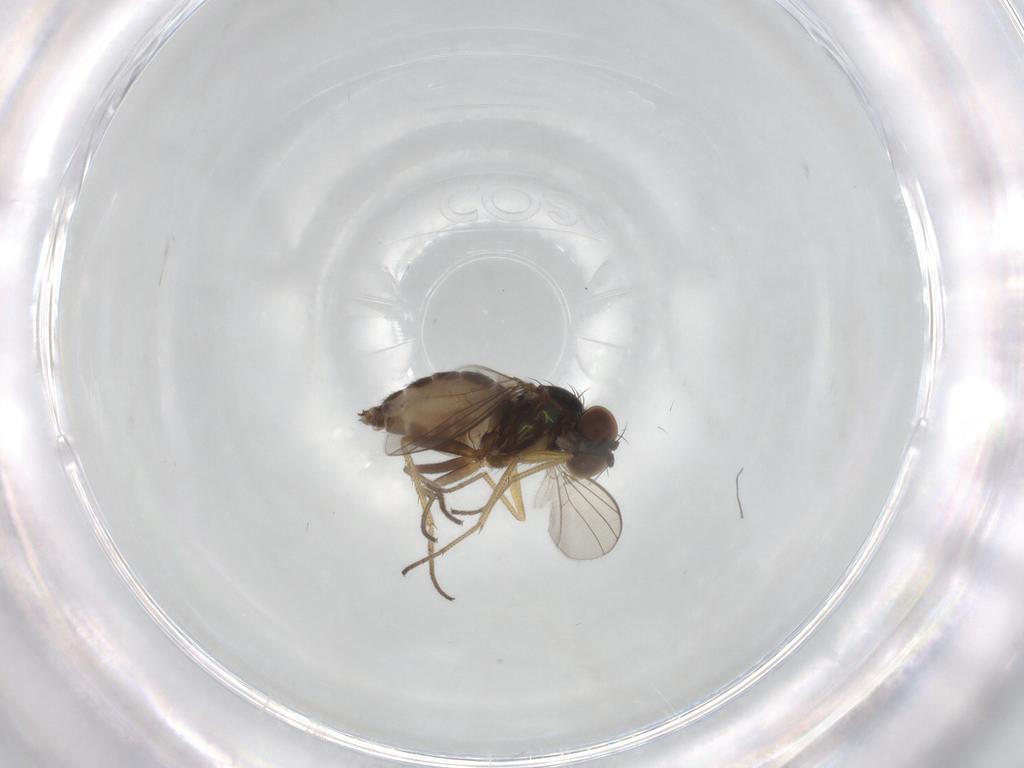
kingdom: Animalia
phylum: Arthropoda
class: Insecta
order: Diptera
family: Dolichopodidae
